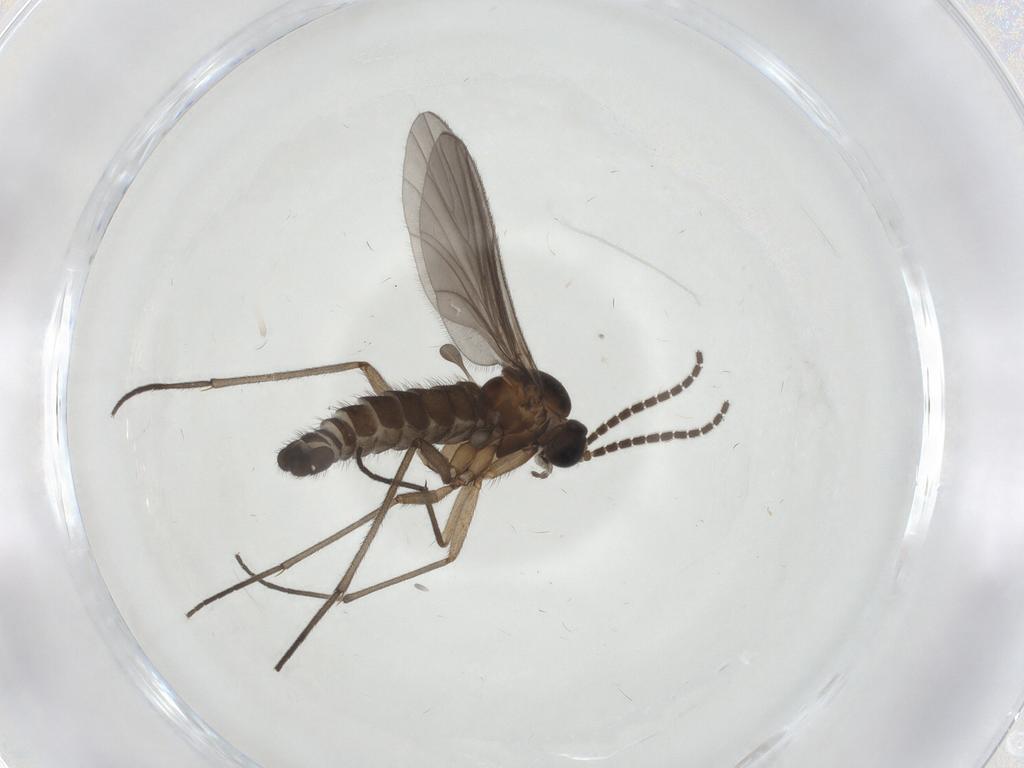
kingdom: Animalia
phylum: Arthropoda
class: Insecta
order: Diptera
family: Sciaridae
